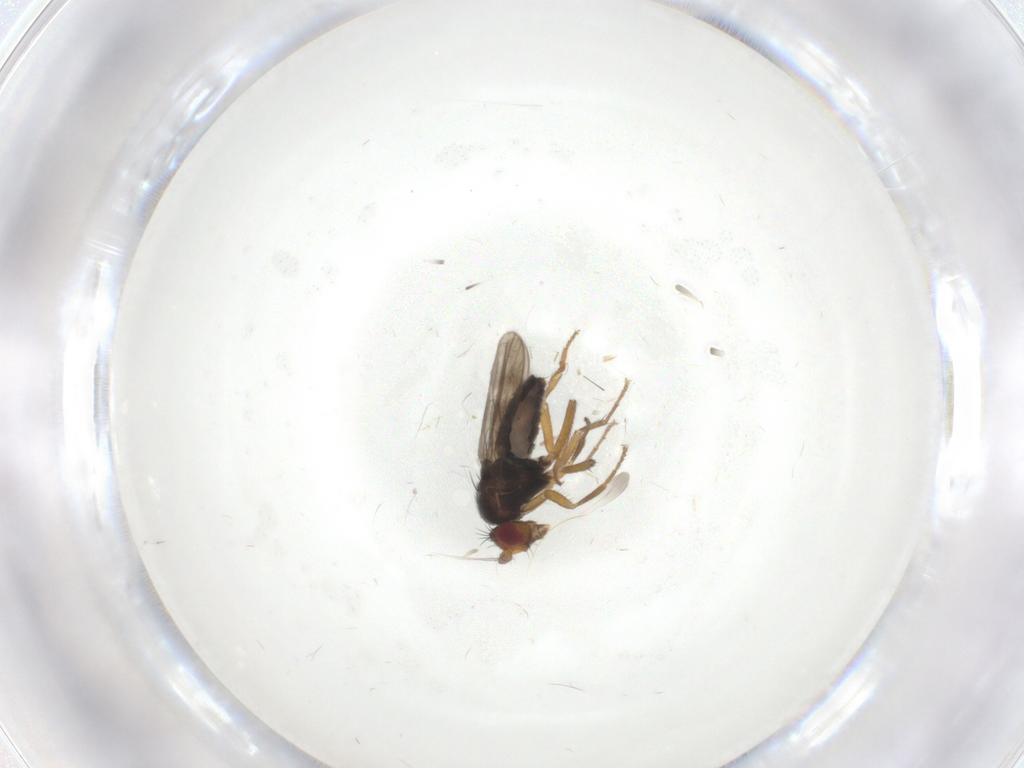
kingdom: Animalia
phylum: Arthropoda
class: Insecta
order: Diptera
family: Sphaeroceridae
